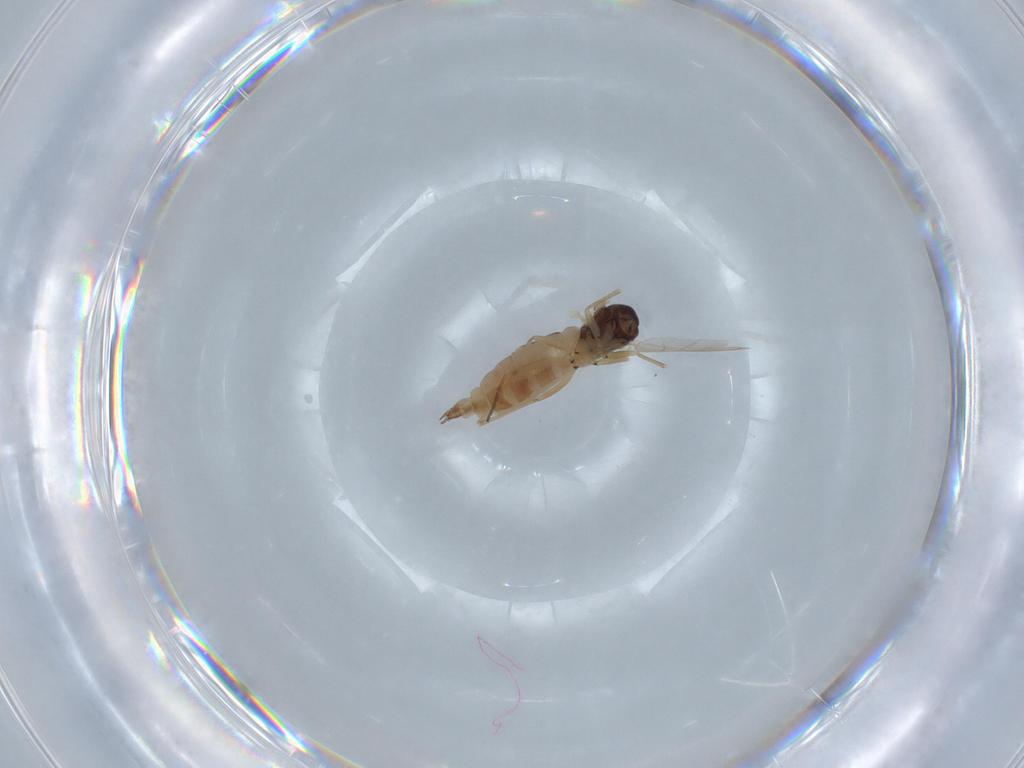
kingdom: Animalia
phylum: Arthropoda
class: Insecta
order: Diptera
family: Sciaridae
